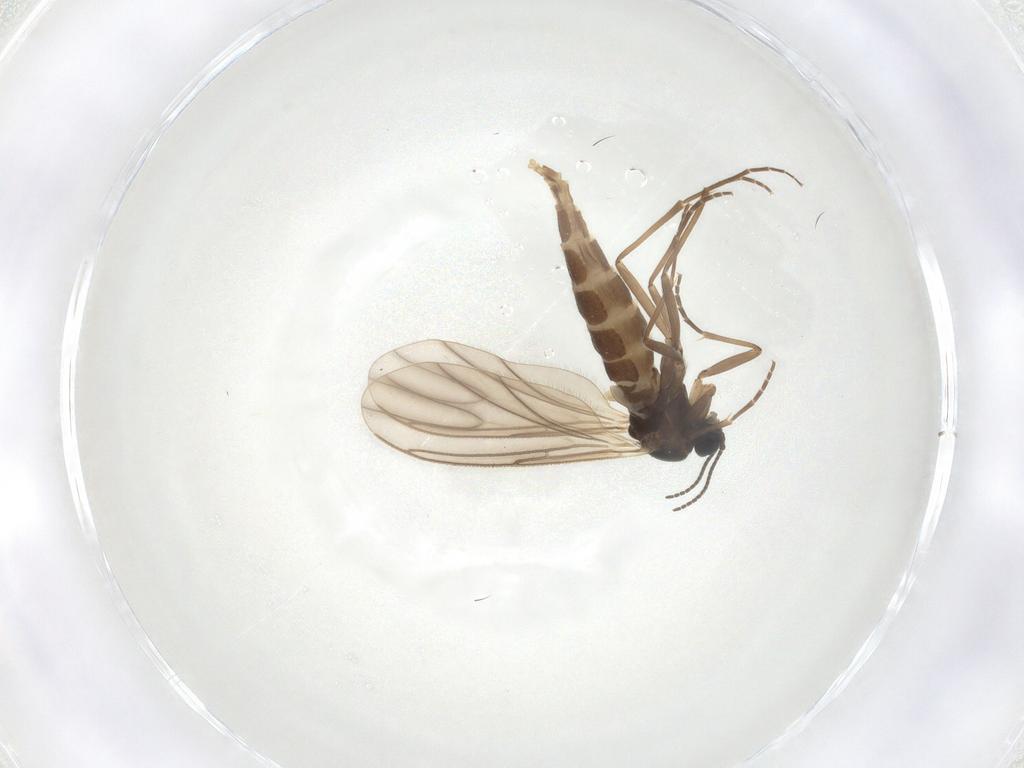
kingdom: Animalia
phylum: Arthropoda
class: Insecta
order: Diptera
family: Sciaridae
